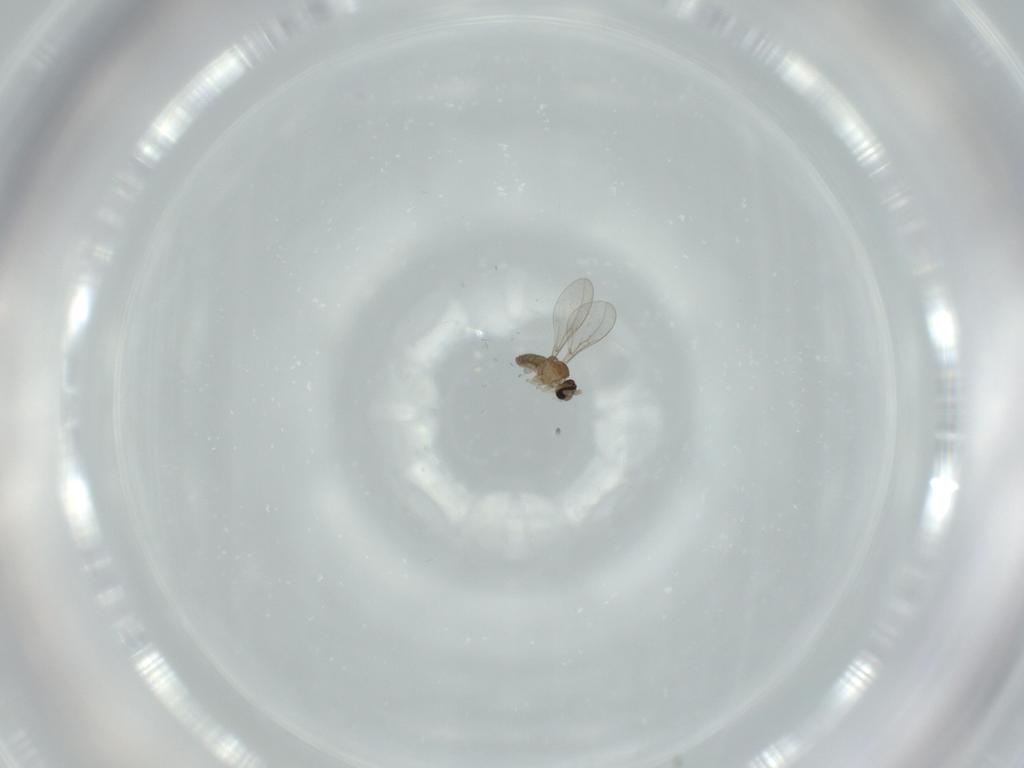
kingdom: Animalia
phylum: Arthropoda
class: Insecta
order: Diptera
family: Cecidomyiidae
